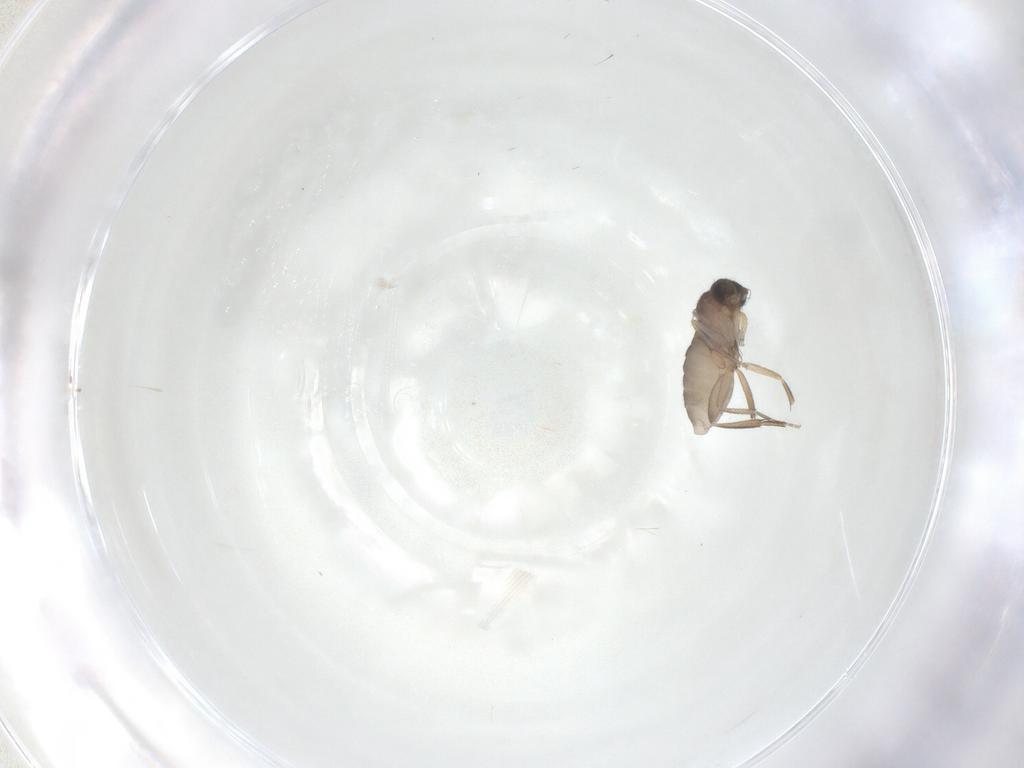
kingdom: Animalia
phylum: Arthropoda
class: Insecta
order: Diptera
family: Phoridae
